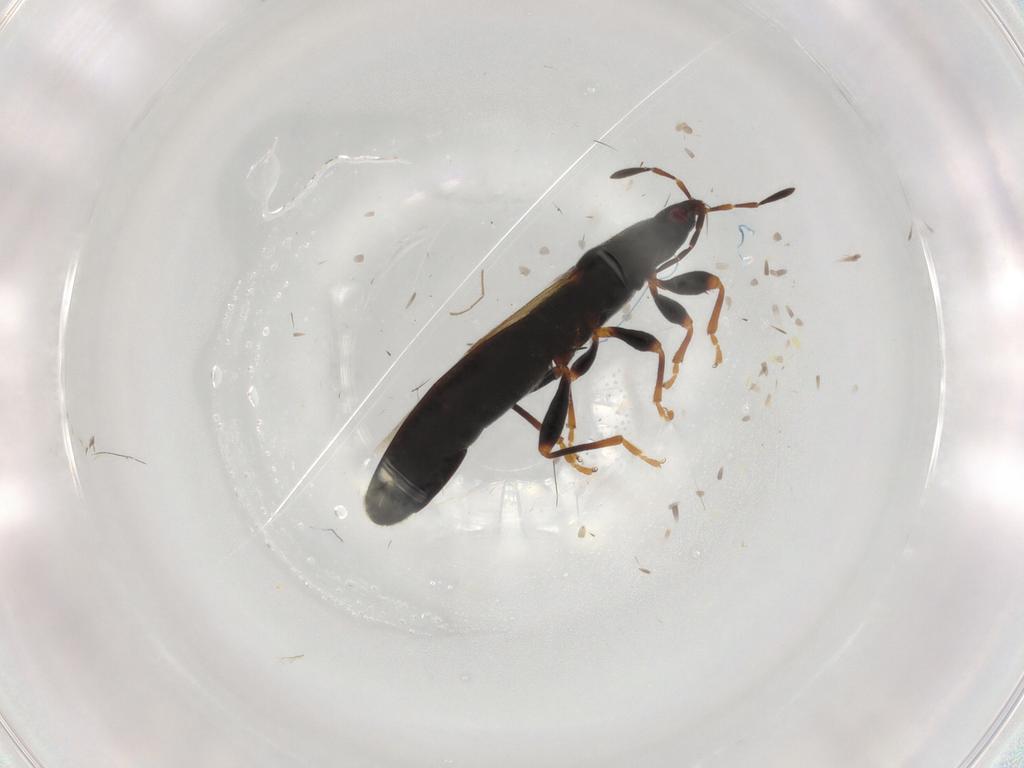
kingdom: Animalia
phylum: Arthropoda
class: Insecta
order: Hemiptera
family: Blissidae
